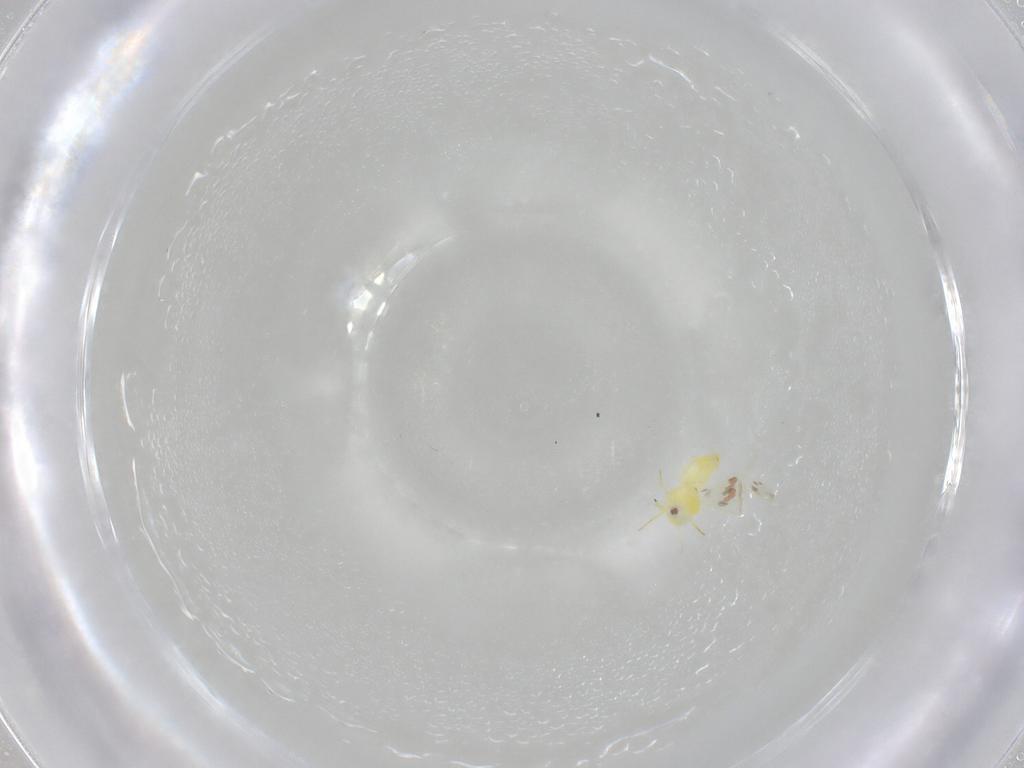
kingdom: Animalia
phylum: Arthropoda
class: Insecta
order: Hemiptera
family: Aleyrodidae
